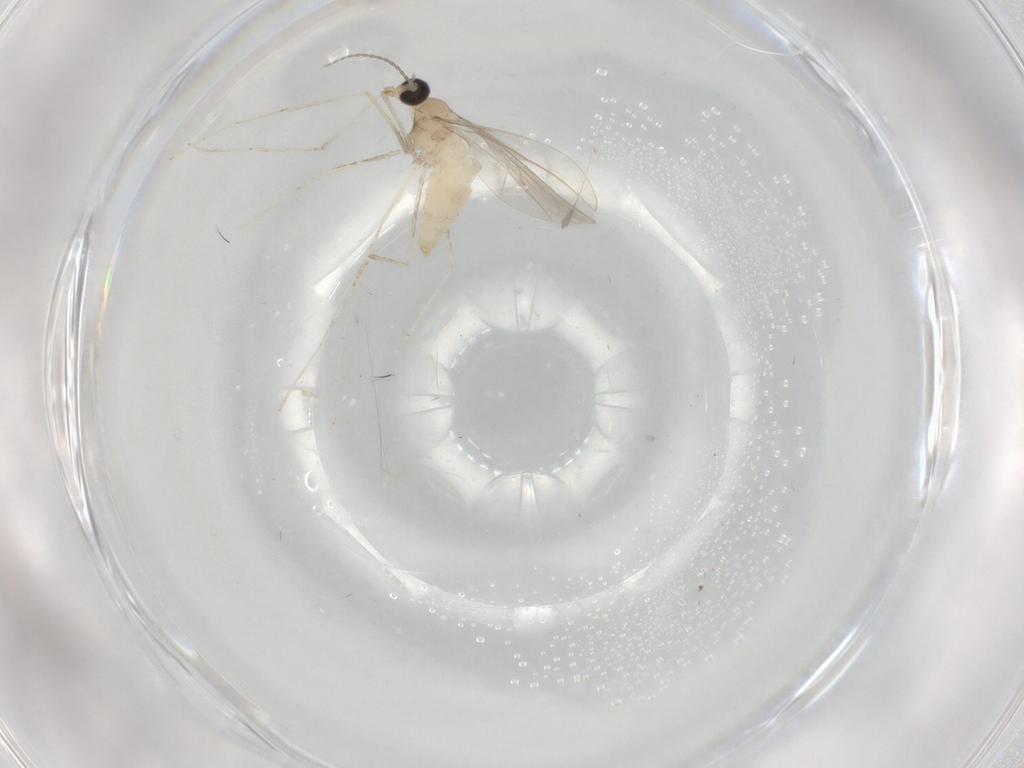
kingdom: Animalia
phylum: Arthropoda
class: Insecta
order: Diptera
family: Cecidomyiidae
